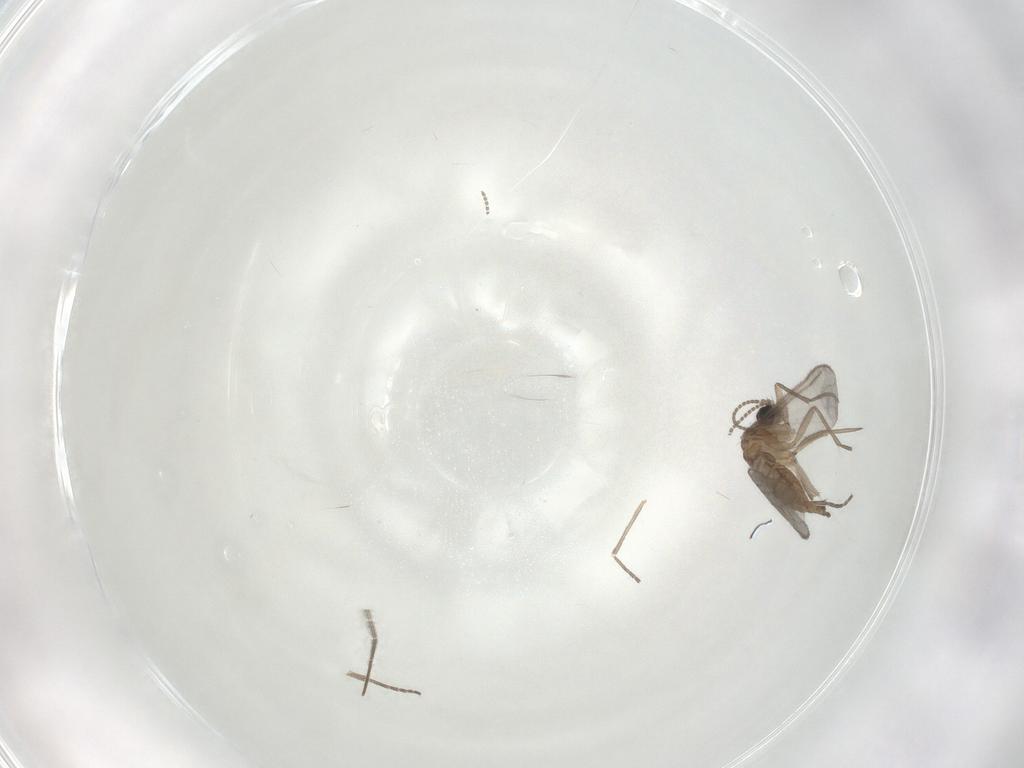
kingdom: Animalia
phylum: Arthropoda
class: Insecta
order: Diptera
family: Sciaridae
